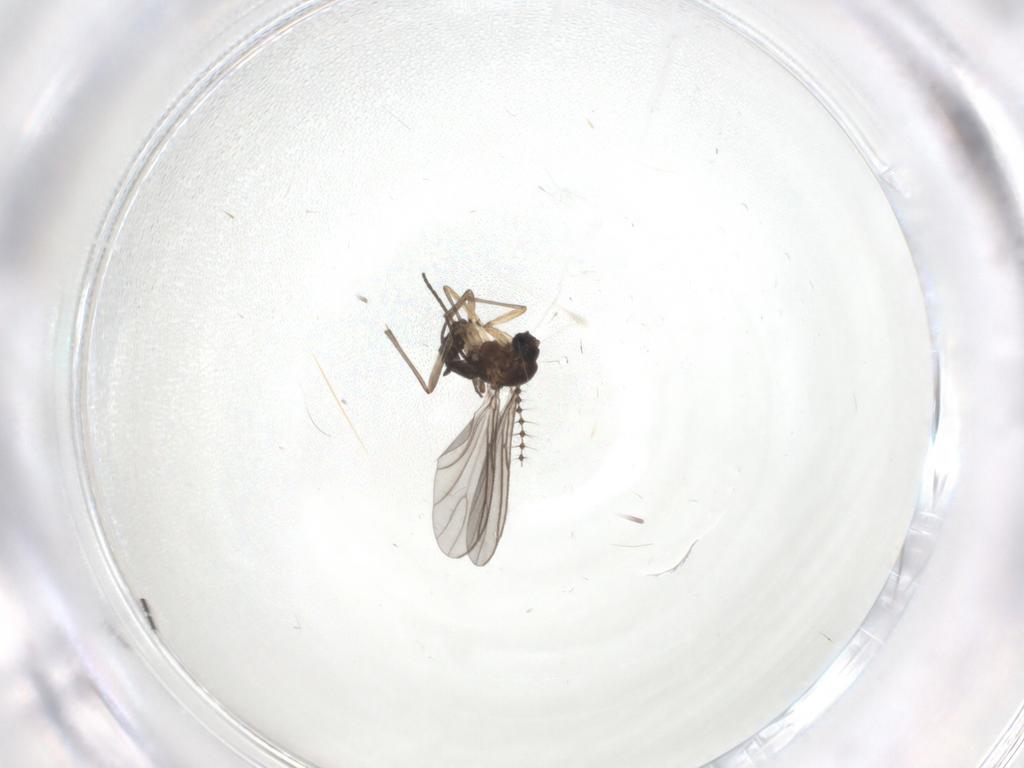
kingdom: Animalia
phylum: Arthropoda
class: Insecta
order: Diptera
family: Sciaridae
